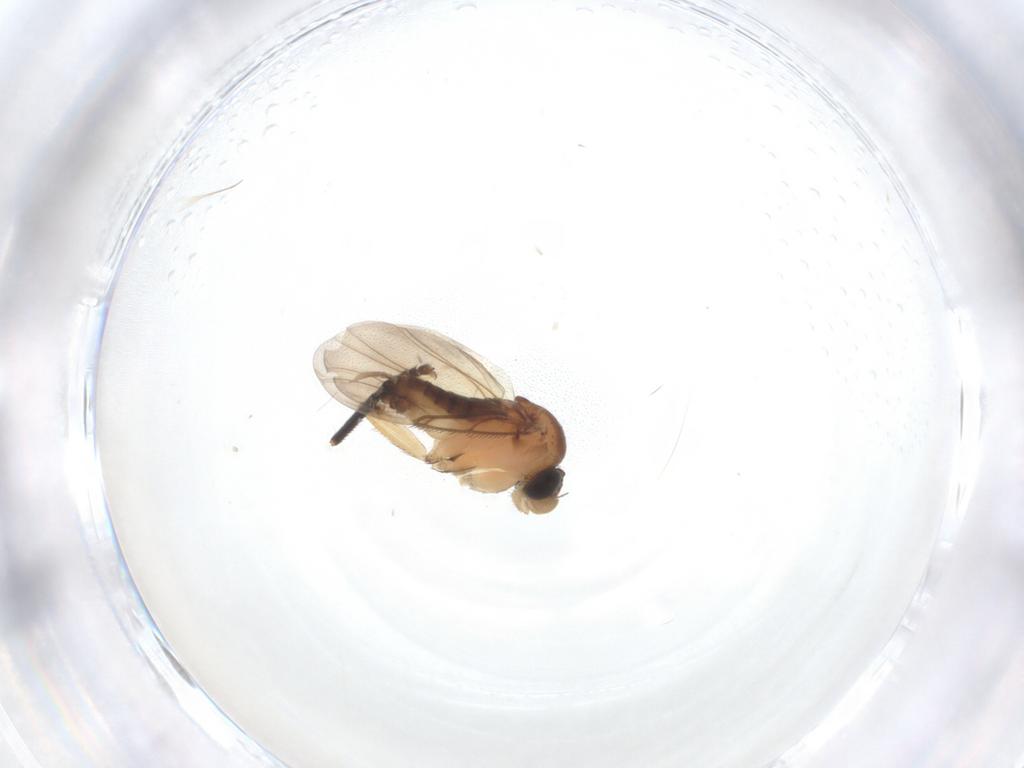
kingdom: Animalia
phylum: Arthropoda
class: Insecta
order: Diptera
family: Phoridae
